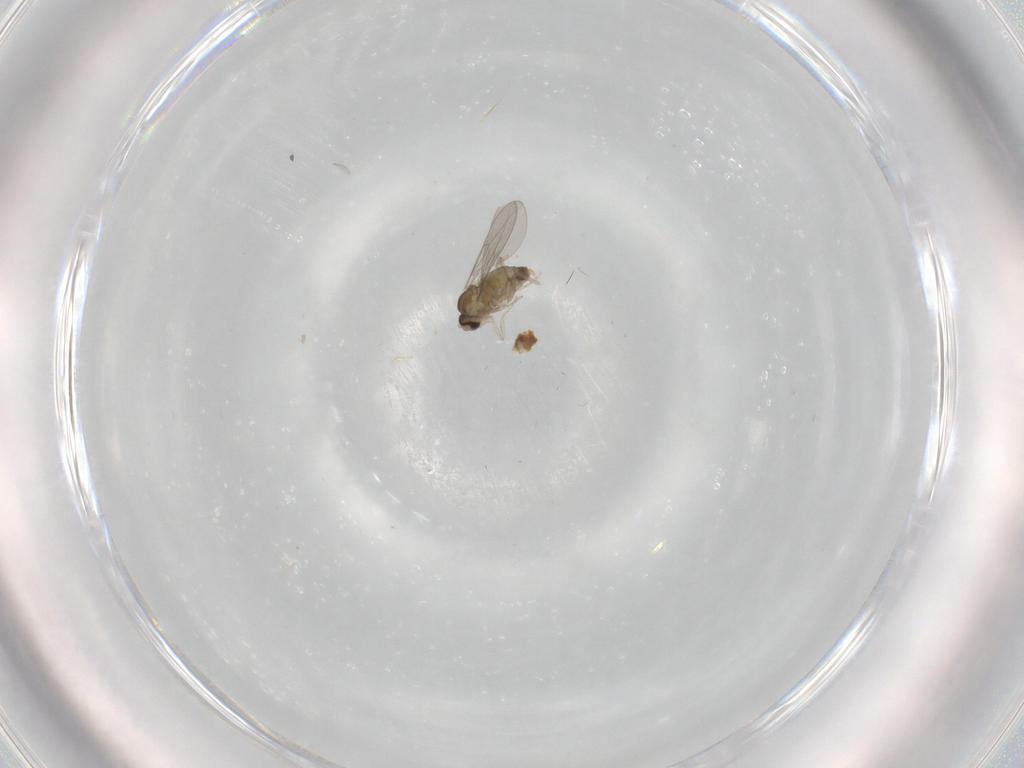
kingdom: Animalia
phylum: Arthropoda
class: Insecta
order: Diptera
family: Cecidomyiidae
